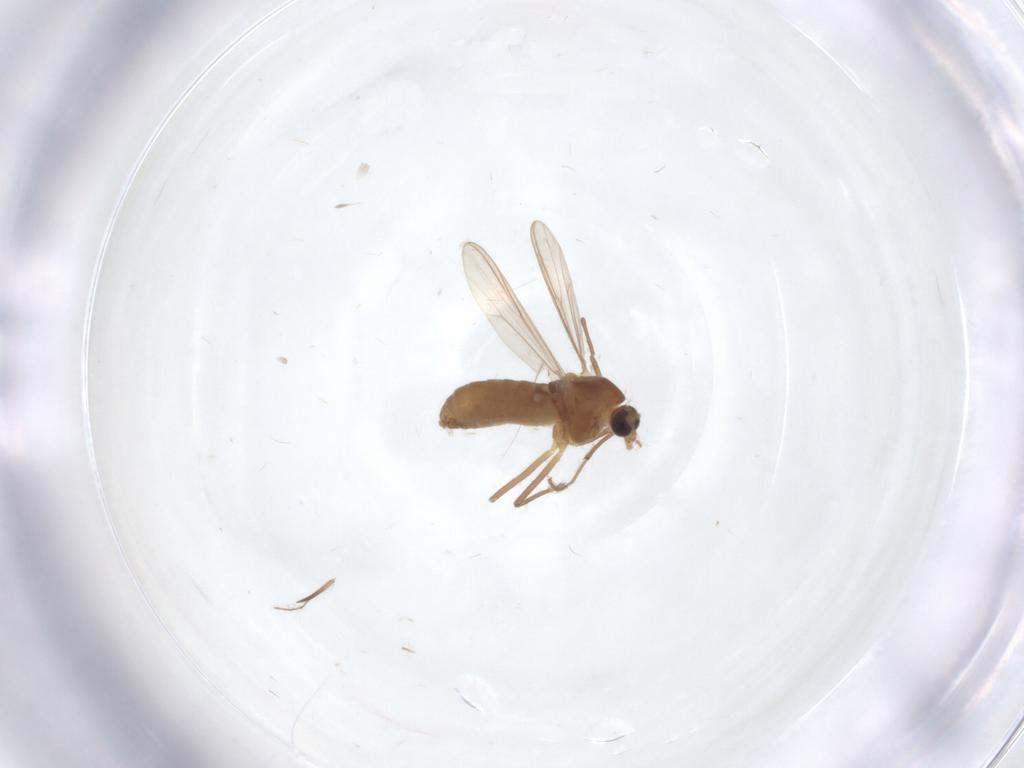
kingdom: Animalia
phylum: Arthropoda
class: Insecta
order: Diptera
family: Chironomidae
